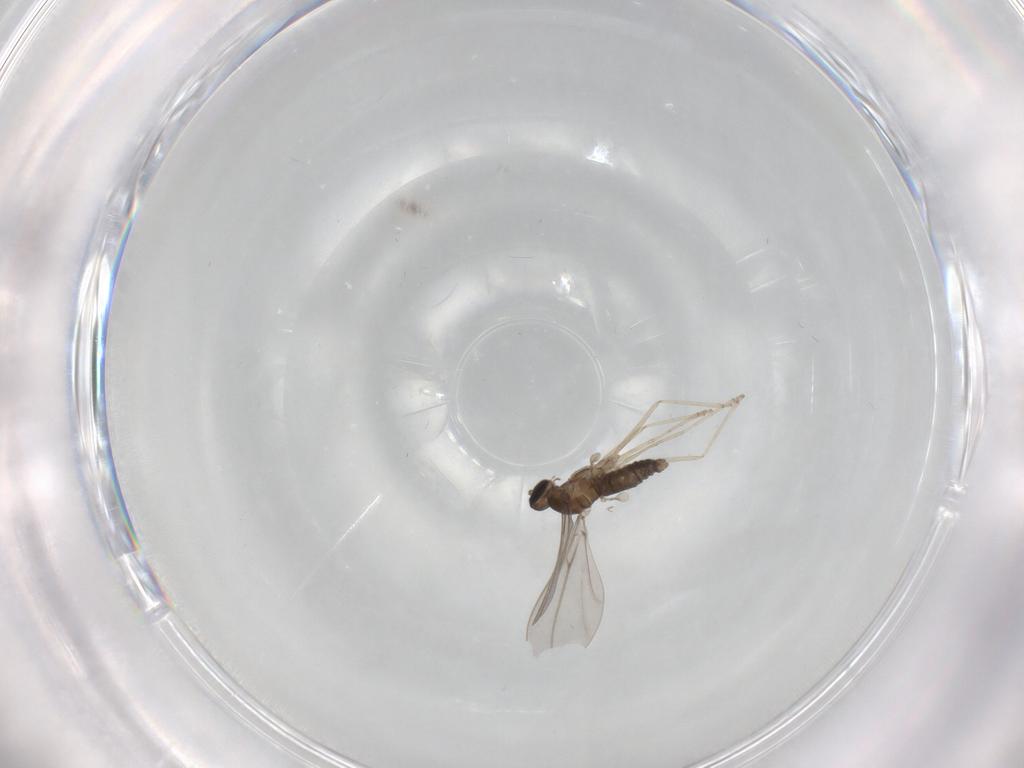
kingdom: Animalia
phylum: Arthropoda
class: Insecta
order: Diptera
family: Cecidomyiidae
